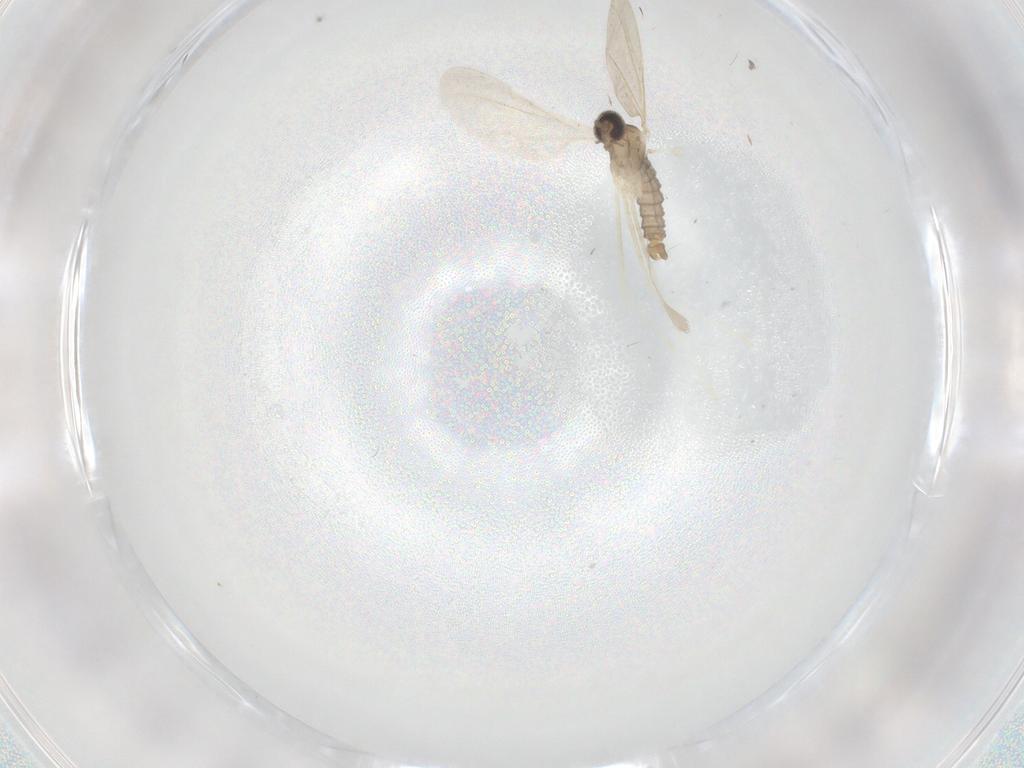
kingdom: Animalia
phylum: Arthropoda
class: Insecta
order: Diptera
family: Cecidomyiidae
